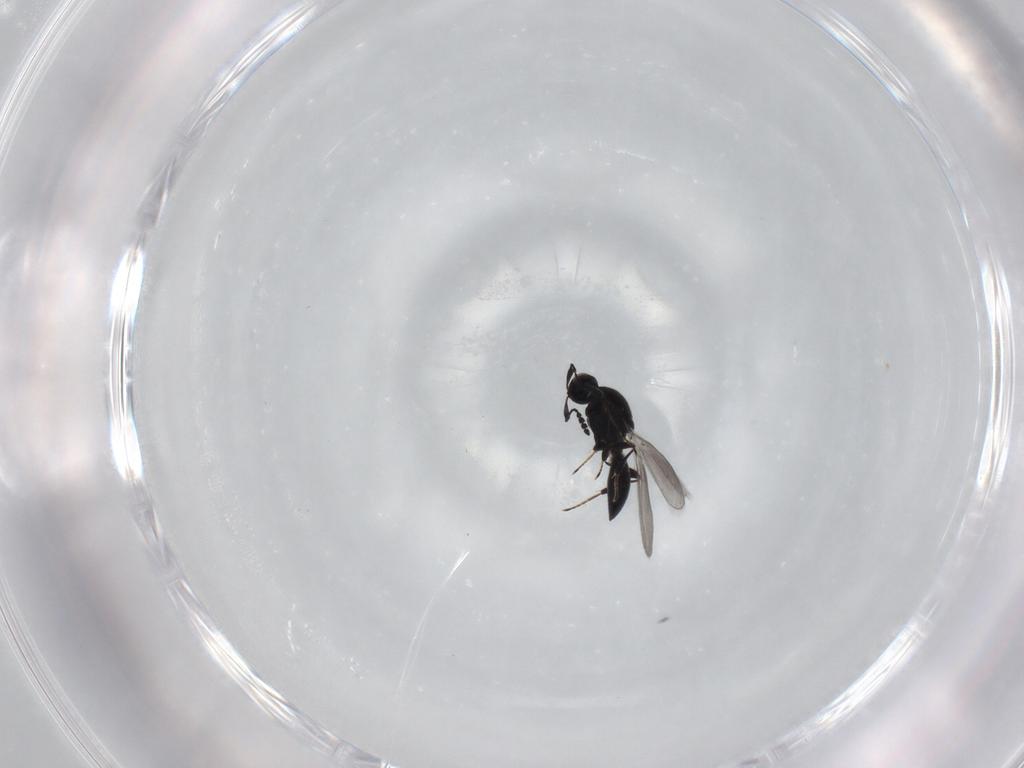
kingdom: Animalia
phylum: Arthropoda
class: Insecta
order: Hymenoptera
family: Platygastridae
